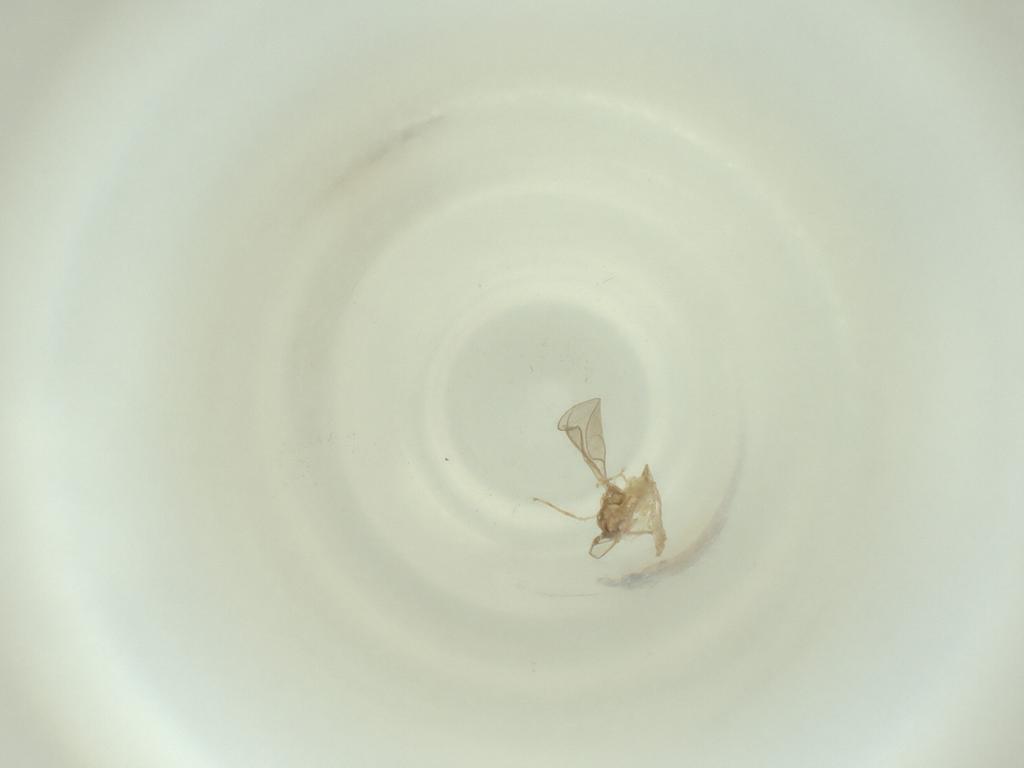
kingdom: Animalia
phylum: Arthropoda
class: Insecta
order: Diptera
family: Cecidomyiidae
